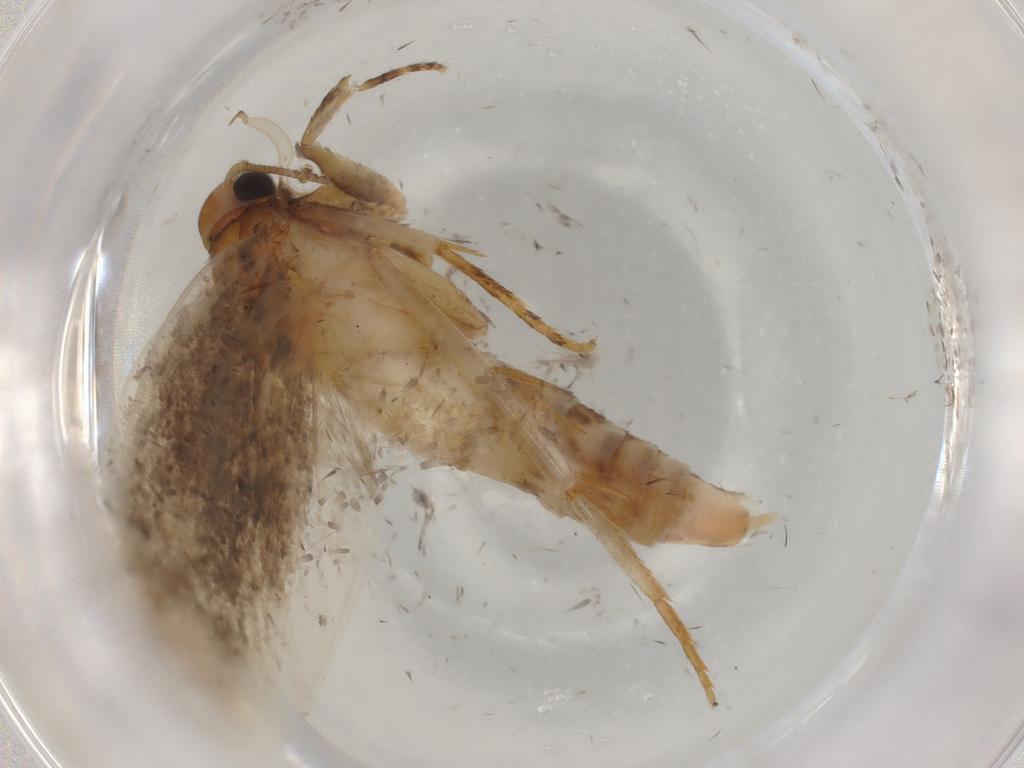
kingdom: Animalia
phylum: Arthropoda
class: Insecta
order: Lepidoptera
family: Oecophoridae
